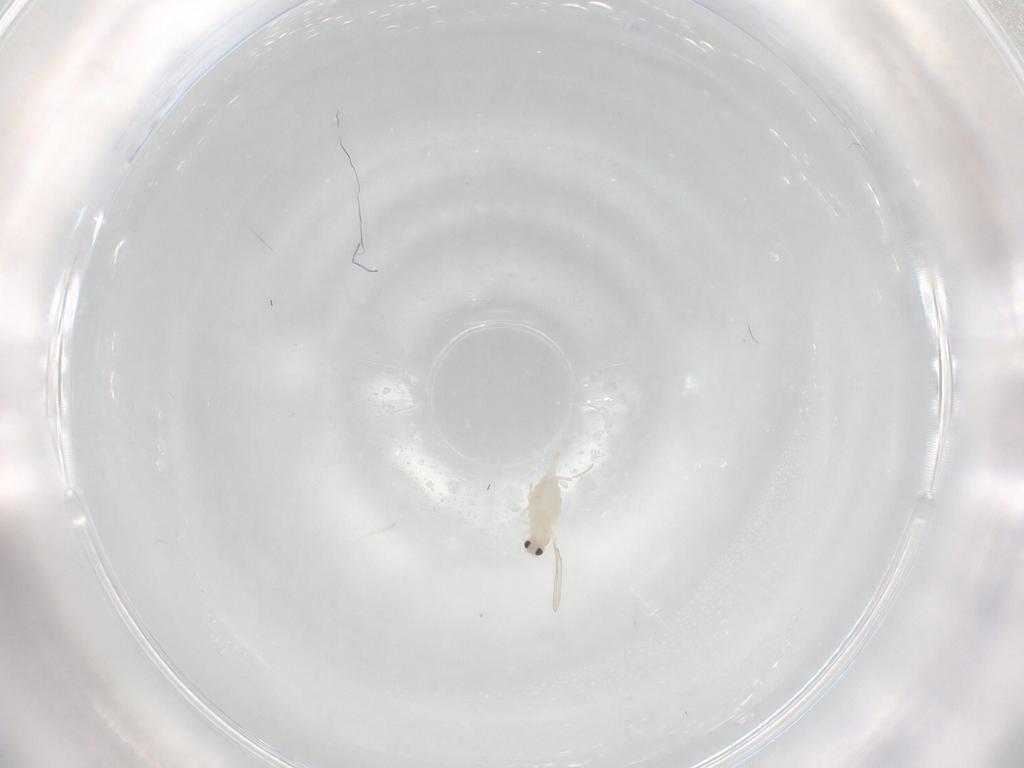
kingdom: Animalia
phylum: Arthropoda
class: Insecta
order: Diptera
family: Cecidomyiidae
